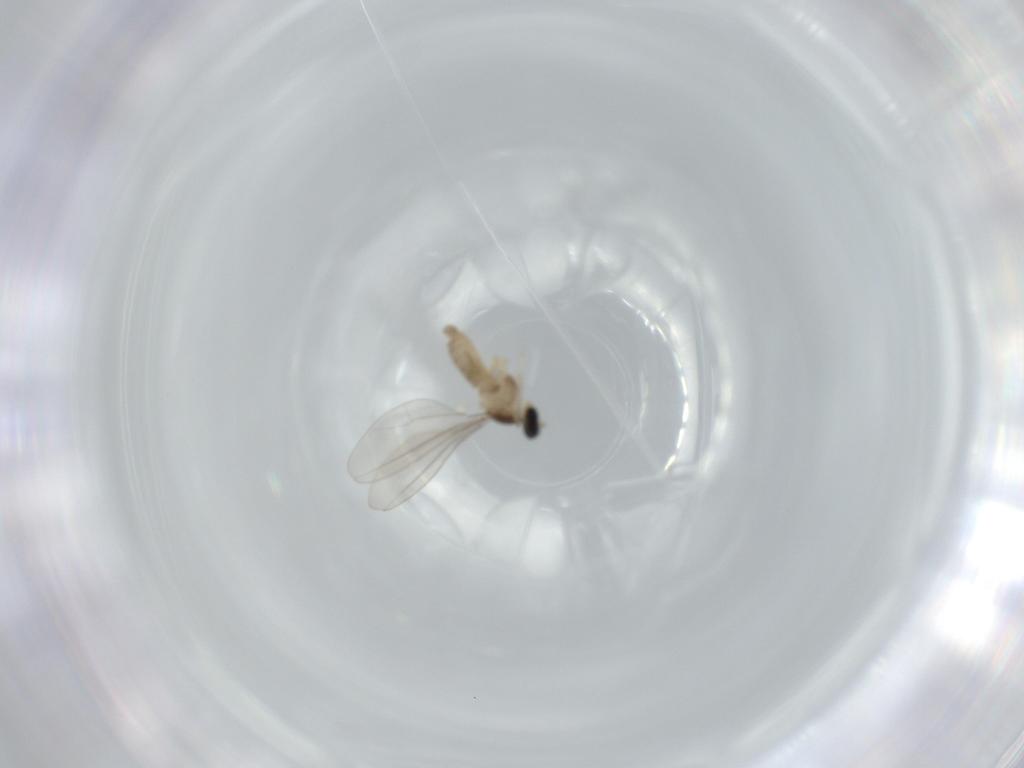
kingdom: Animalia
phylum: Arthropoda
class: Insecta
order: Diptera
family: Cecidomyiidae
